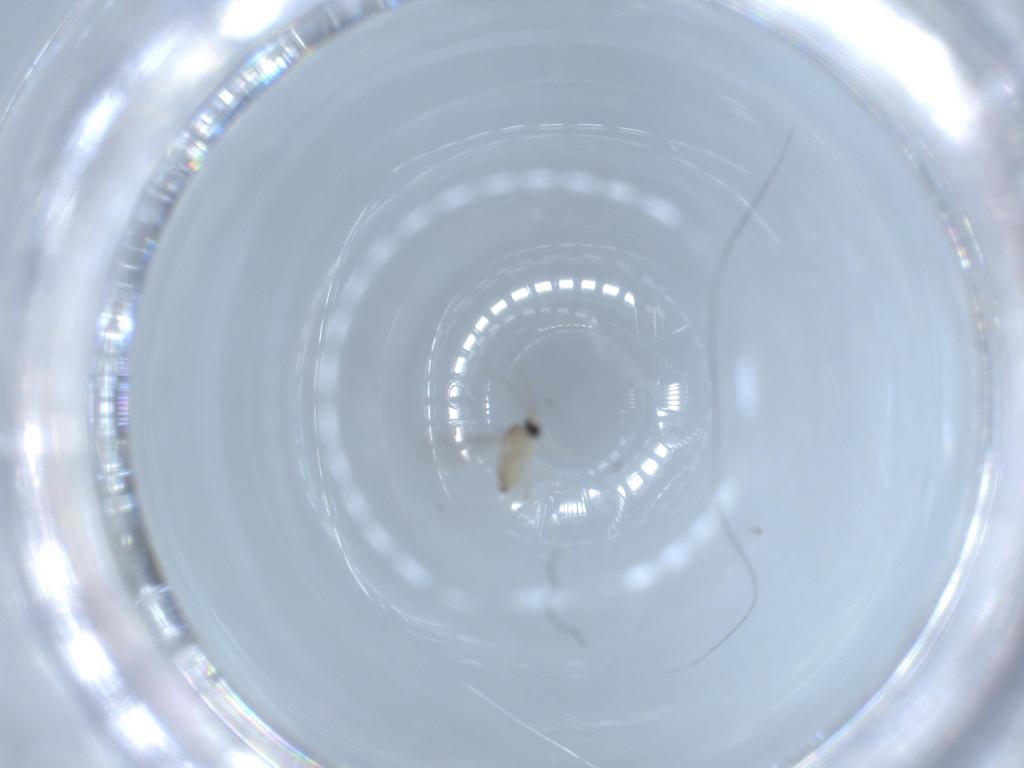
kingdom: Animalia
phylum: Arthropoda
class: Insecta
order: Diptera
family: Cecidomyiidae
